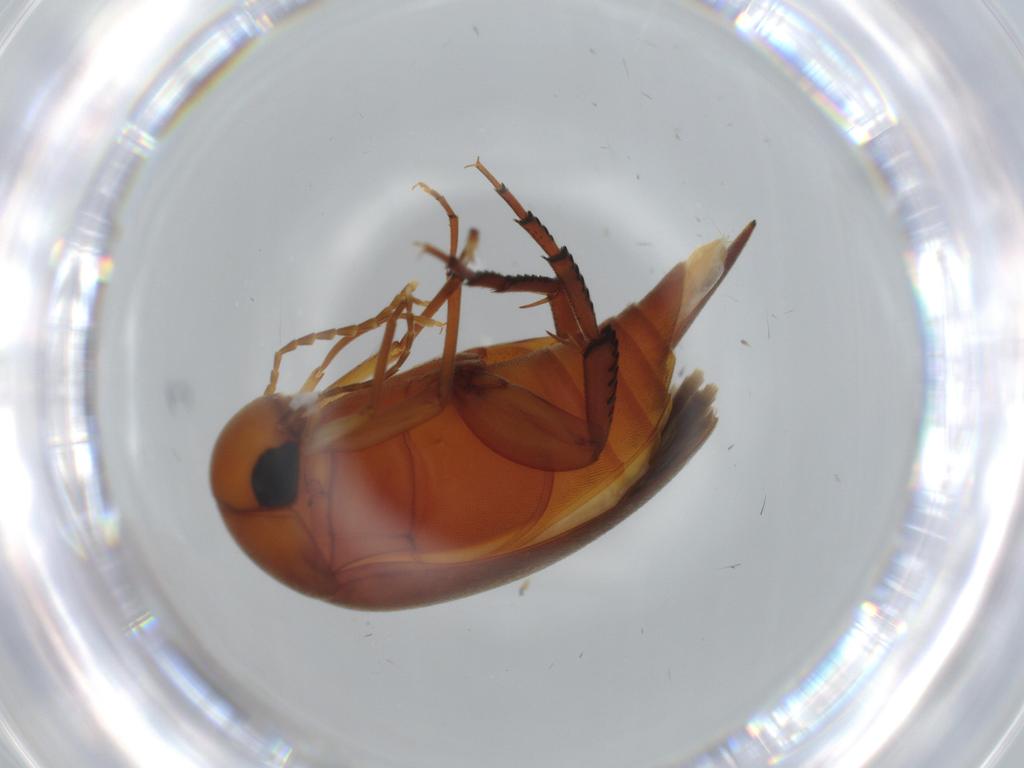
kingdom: Animalia
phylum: Arthropoda
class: Insecta
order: Coleoptera
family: Mordellidae
